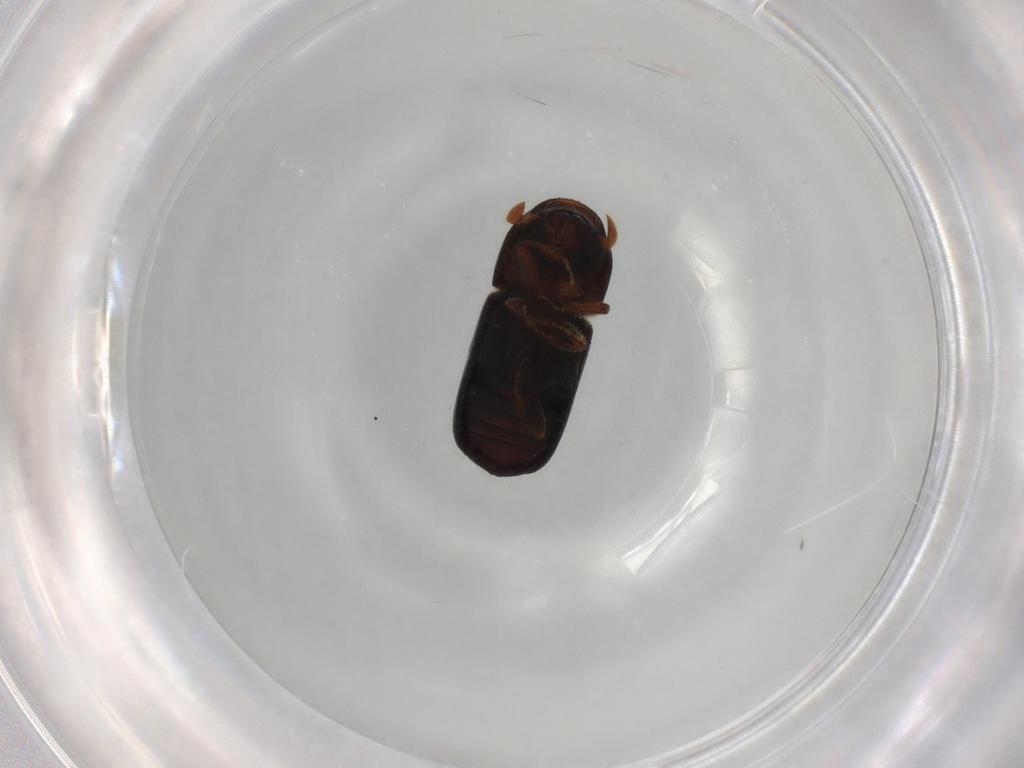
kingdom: Animalia
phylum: Arthropoda
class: Insecta
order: Coleoptera
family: Curculionidae
